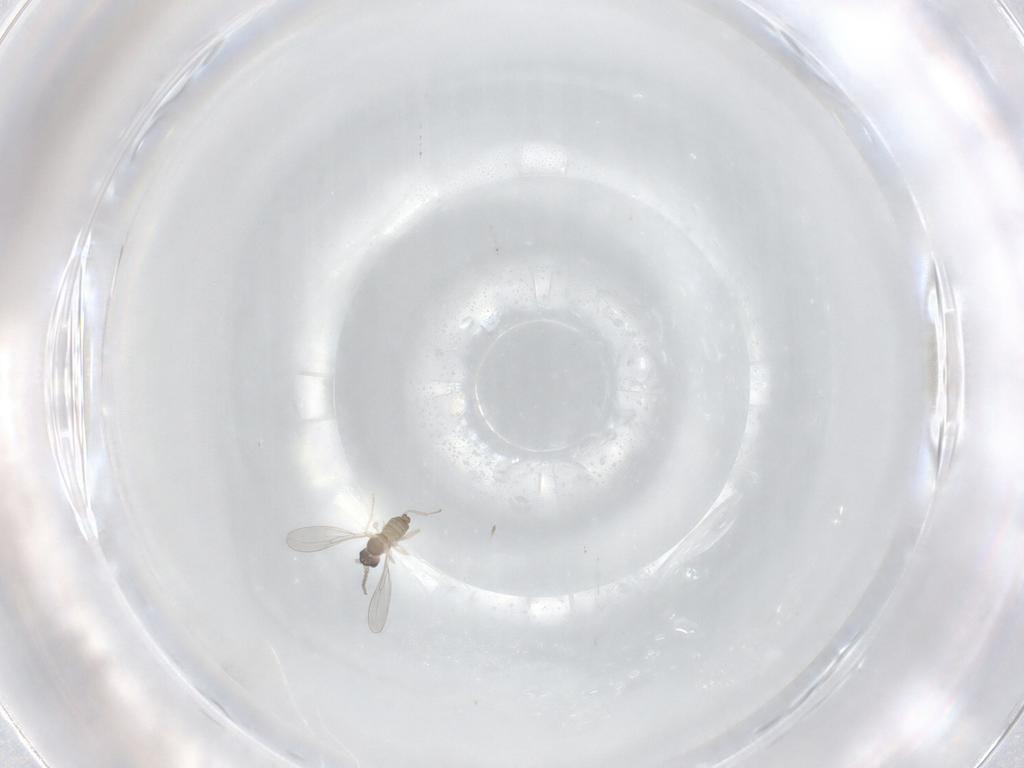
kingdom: Animalia
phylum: Arthropoda
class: Insecta
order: Diptera
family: Cecidomyiidae
